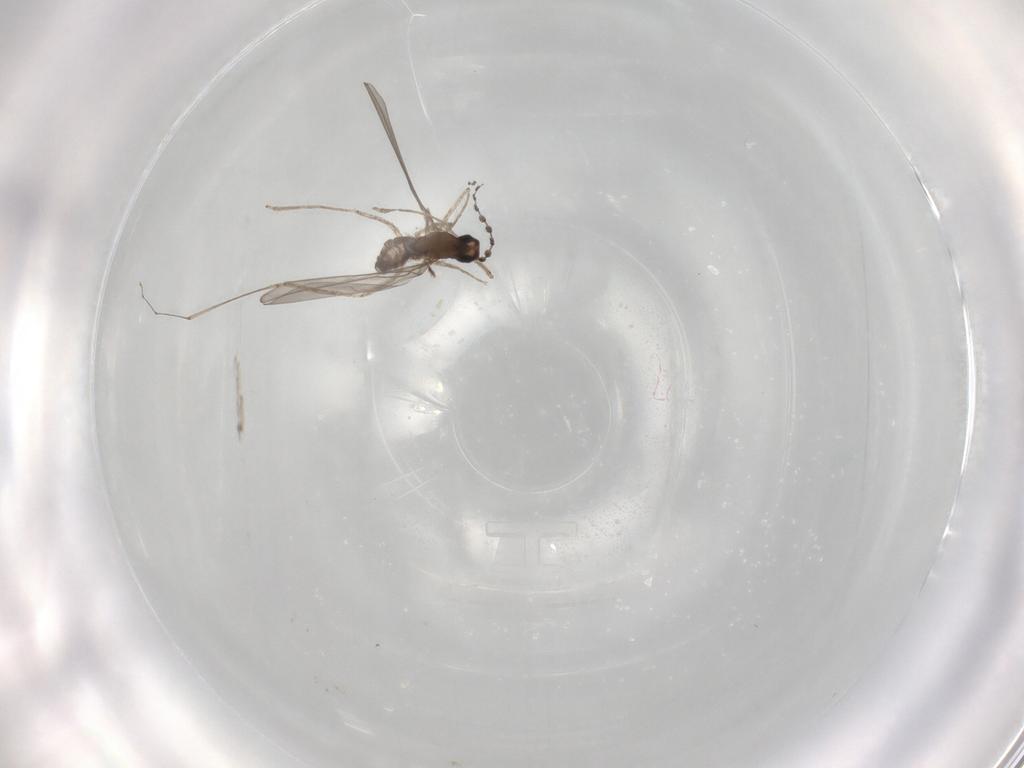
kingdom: Animalia
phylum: Arthropoda
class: Insecta
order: Diptera
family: Cecidomyiidae
